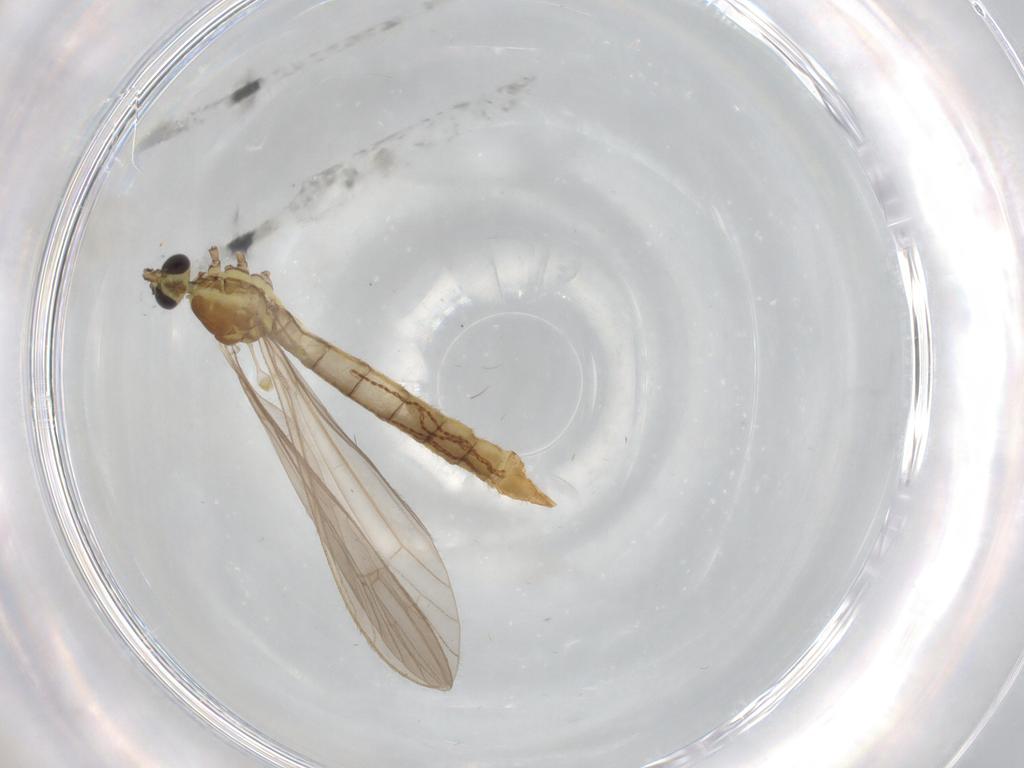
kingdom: Animalia
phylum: Arthropoda
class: Insecta
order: Diptera
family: Limoniidae
